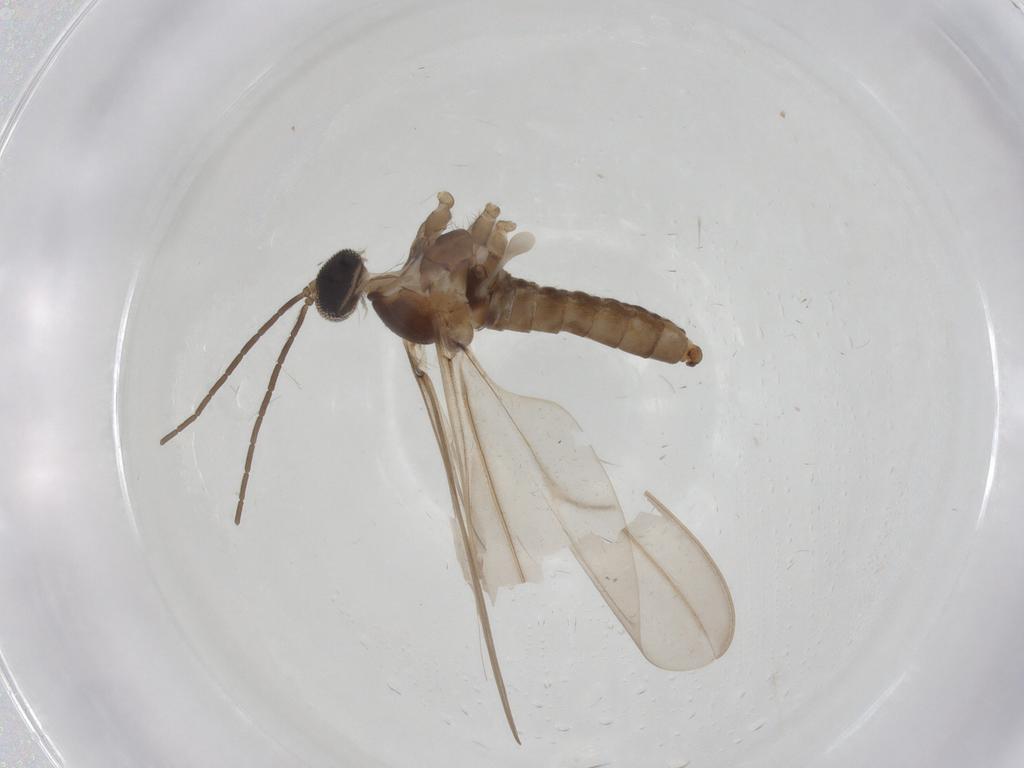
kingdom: Animalia
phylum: Arthropoda
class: Insecta
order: Diptera
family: Cecidomyiidae
